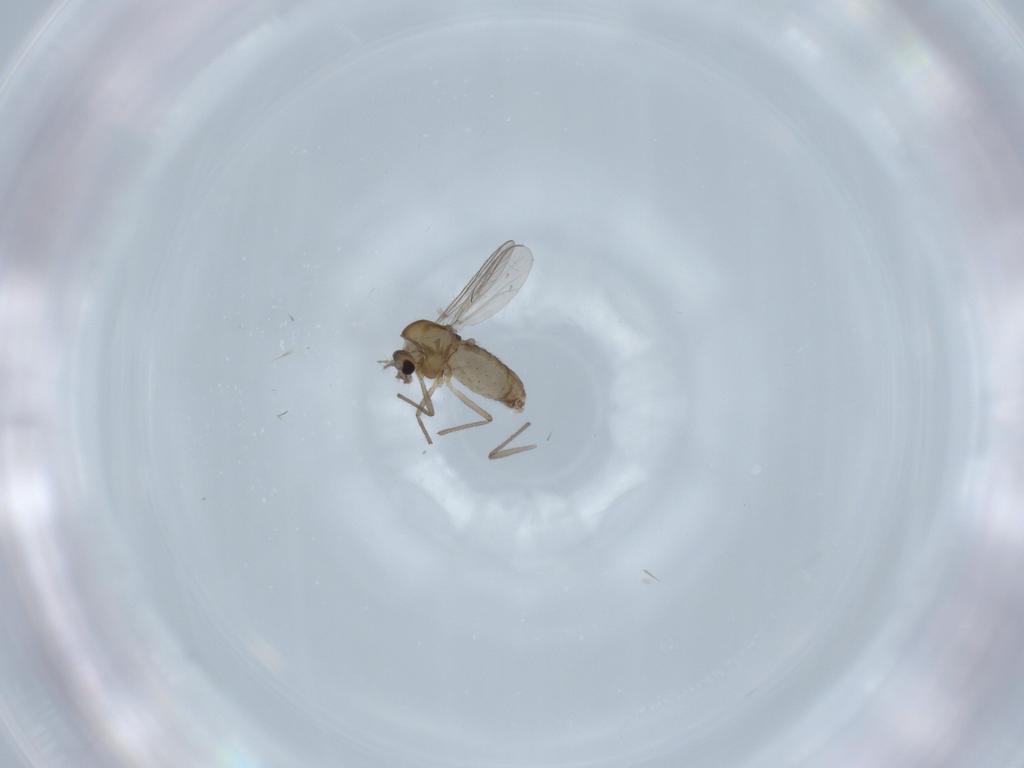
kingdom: Animalia
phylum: Arthropoda
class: Insecta
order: Diptera
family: Chironomidae
